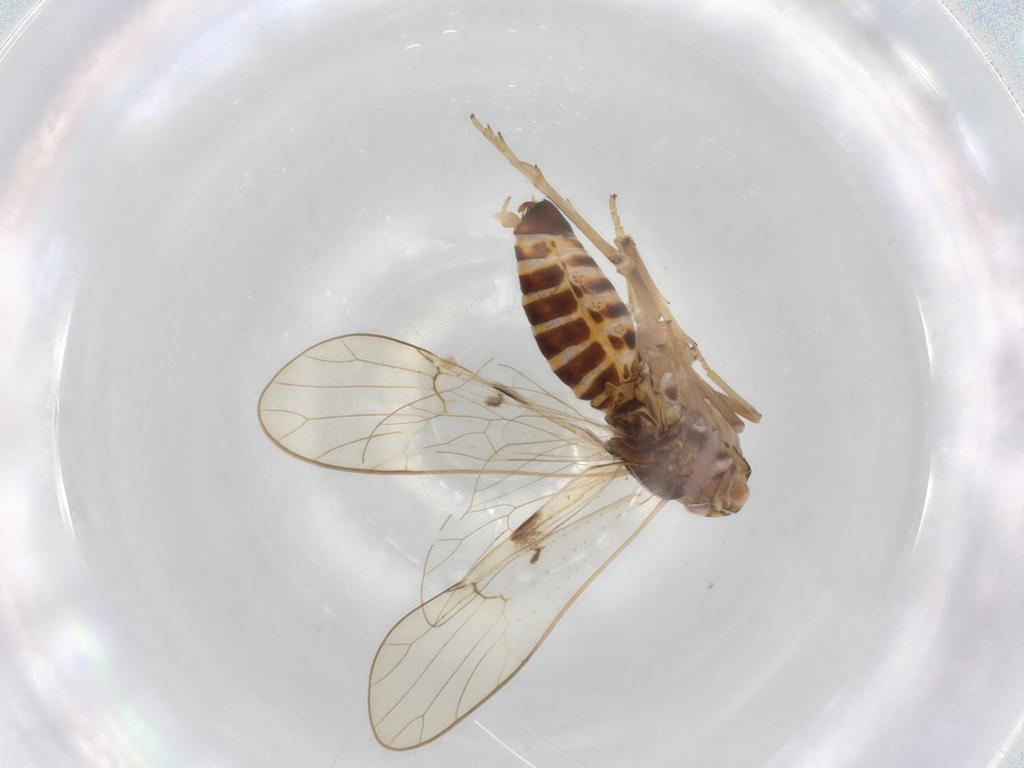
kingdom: Animalia
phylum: Arthropoda
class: Insecta
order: Hemiptera
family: Delphacidae
